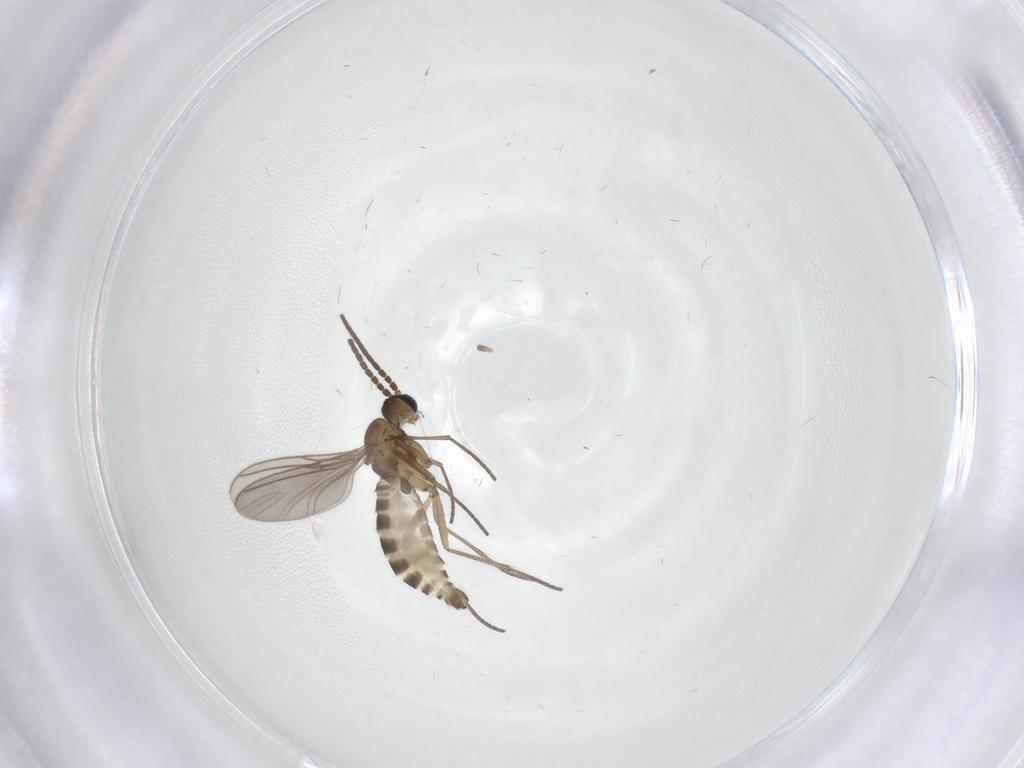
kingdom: Animalia
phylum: Arthropoda
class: Insecta
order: Diptera
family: Sciaridae
